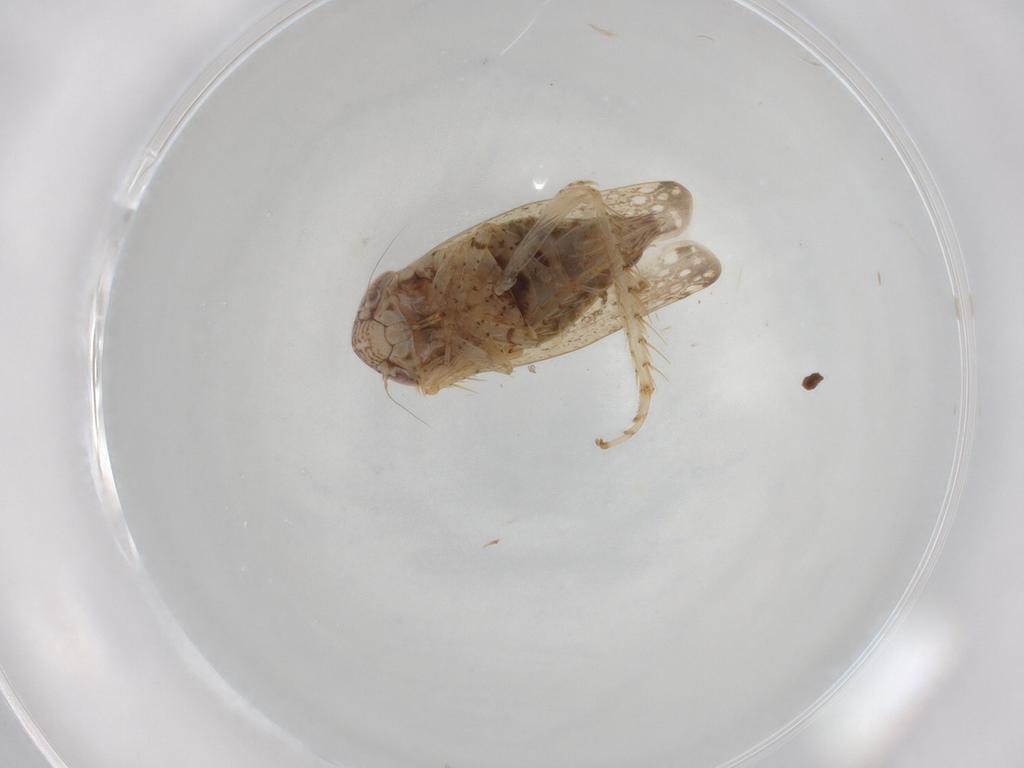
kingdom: Animalia
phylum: Arthropoda
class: Insecta
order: Hemiptera
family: Cicadellidae
